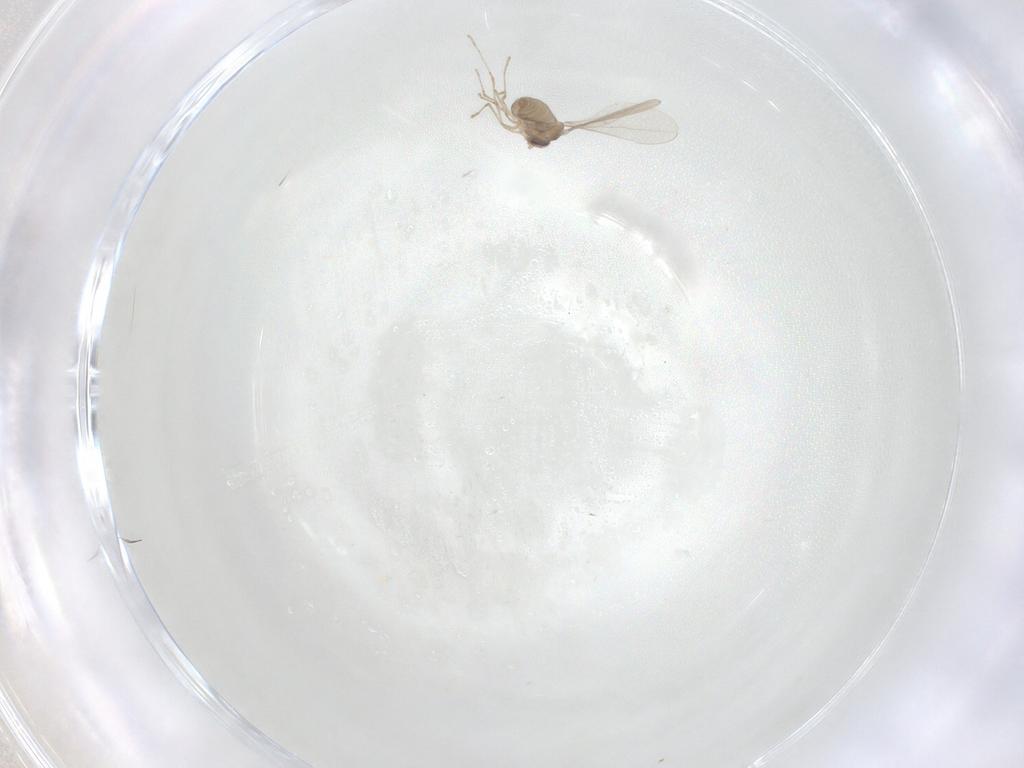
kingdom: Animalia
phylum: Arthropoda
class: Insecta
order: Diptera
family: Cecidomyiidae
